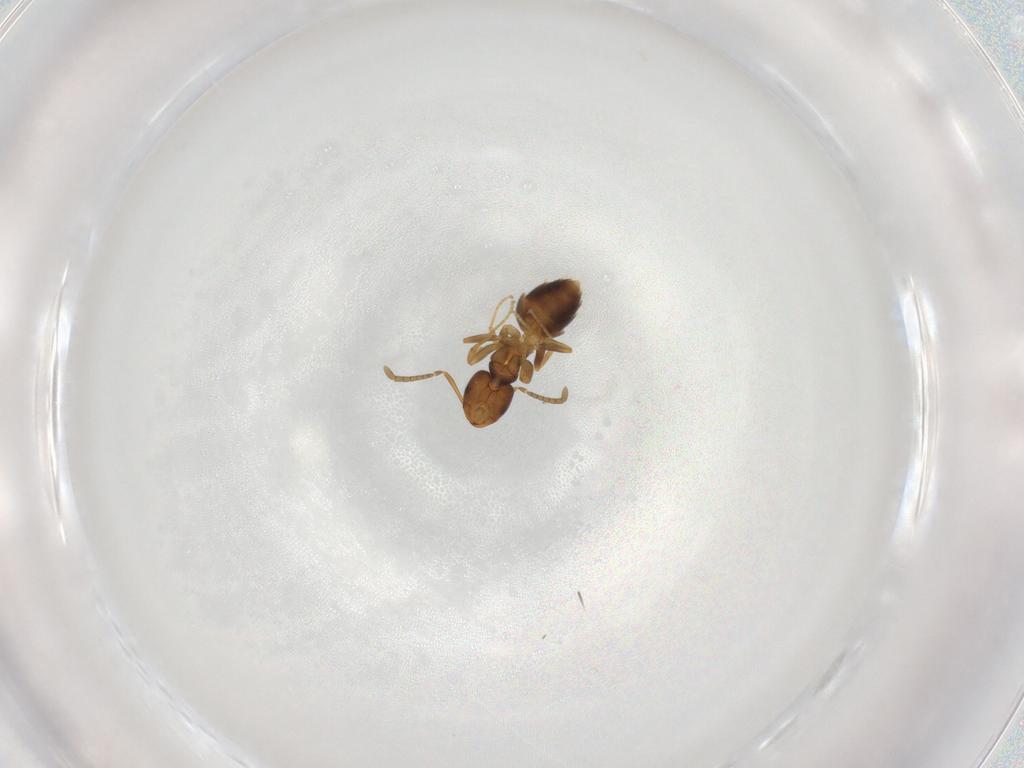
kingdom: Animalia
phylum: Arthropoda
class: Insecta
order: Hymenoptera
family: Formicidae
